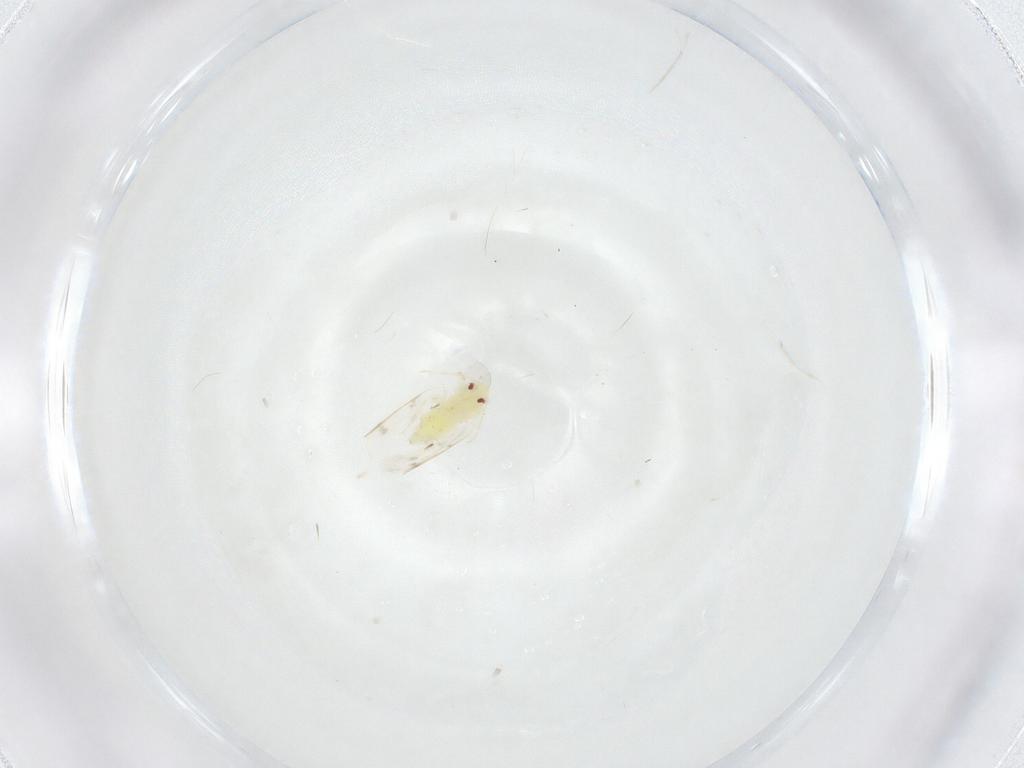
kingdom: Animalia
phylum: Arthropoda
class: Insecta
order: Hemiptera
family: Aleyrodidae
